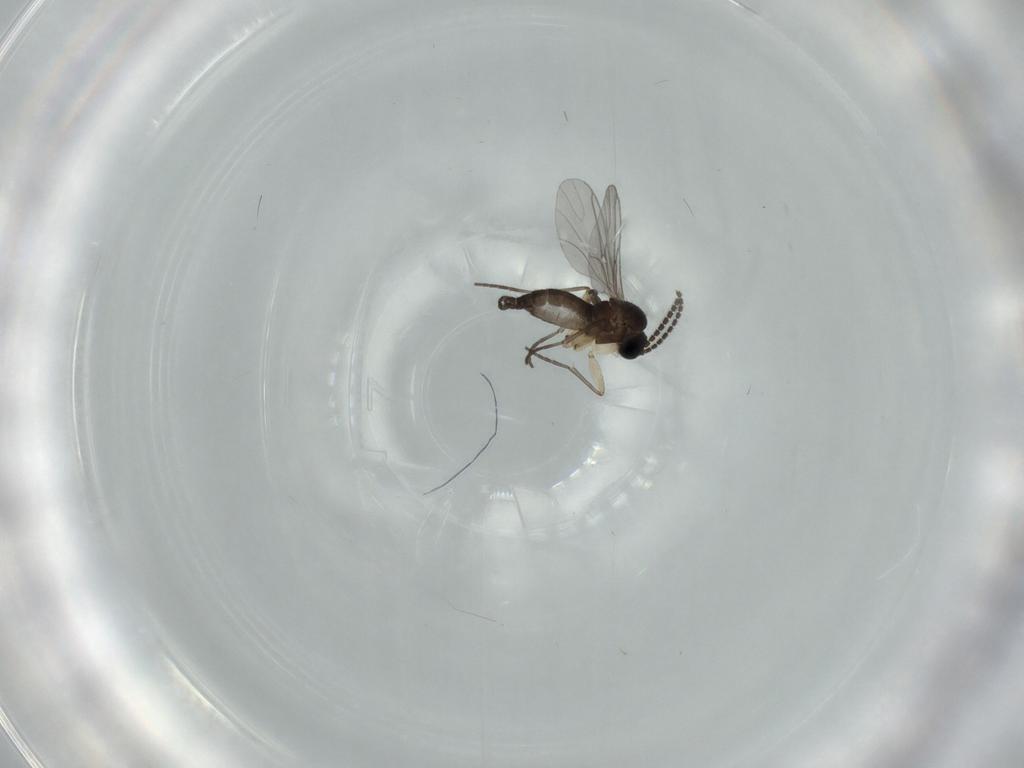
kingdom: Animalia
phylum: Arthropoda
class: Insecta
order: Diptera
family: Sciaridae
